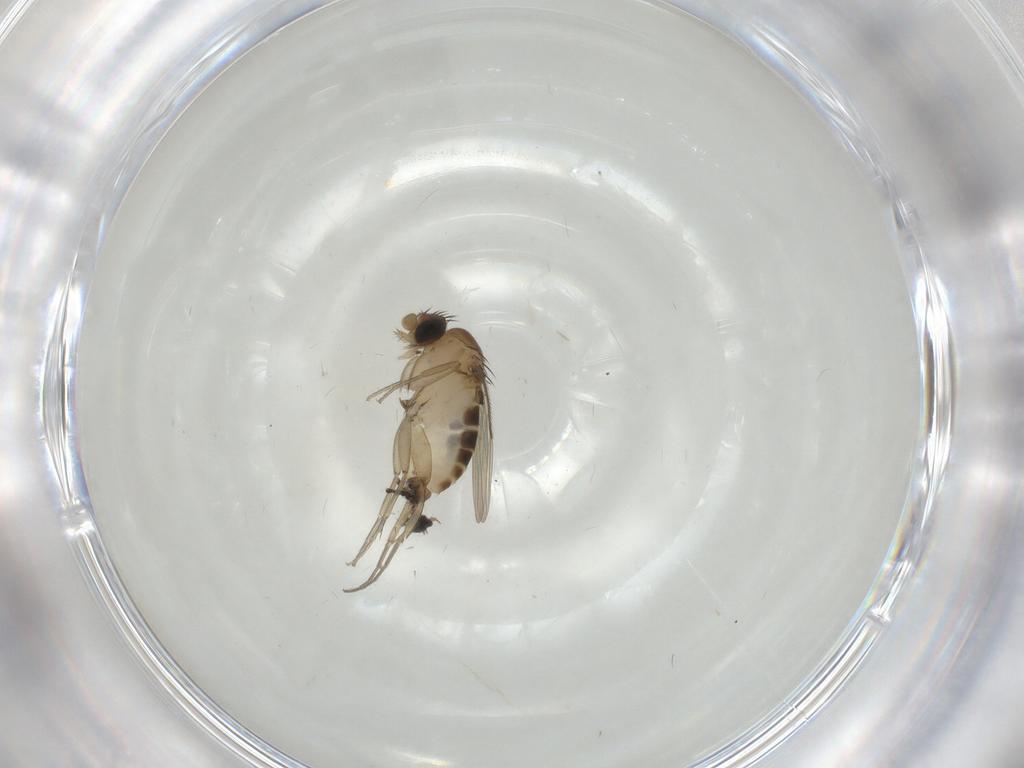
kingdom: Animalia
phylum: Arthropoda
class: Insecta
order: Diptera
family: Phoridae
